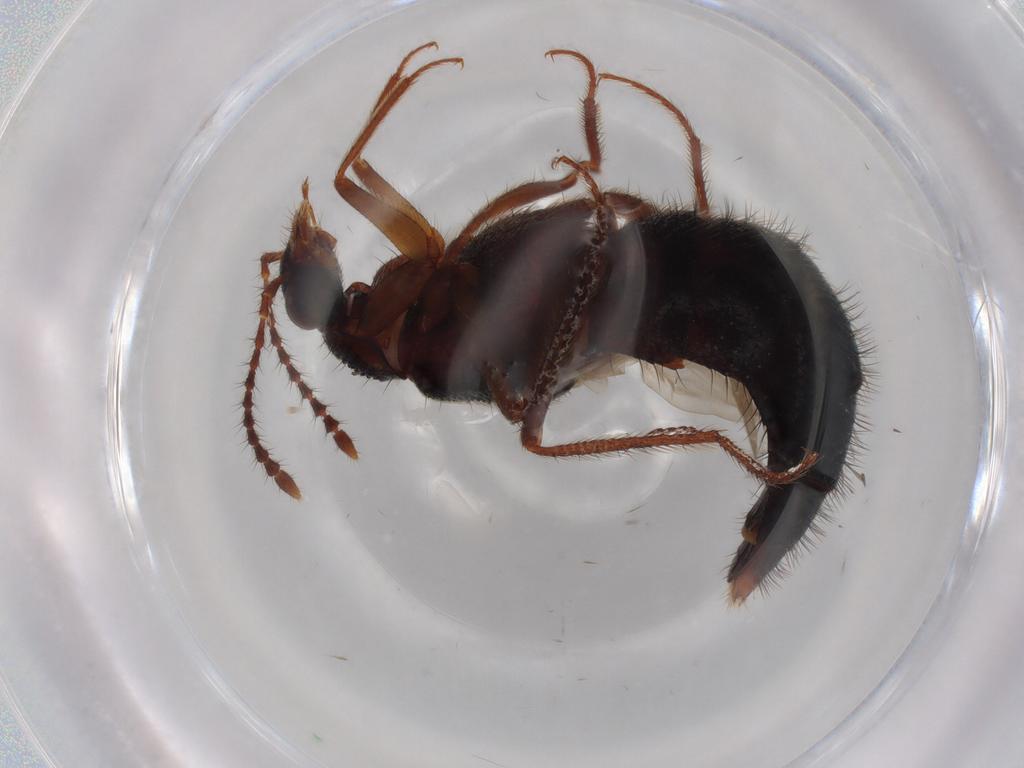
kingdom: Animalia
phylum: Arthropoda
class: Insecta
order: Coleoptera
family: Staphylinidae
